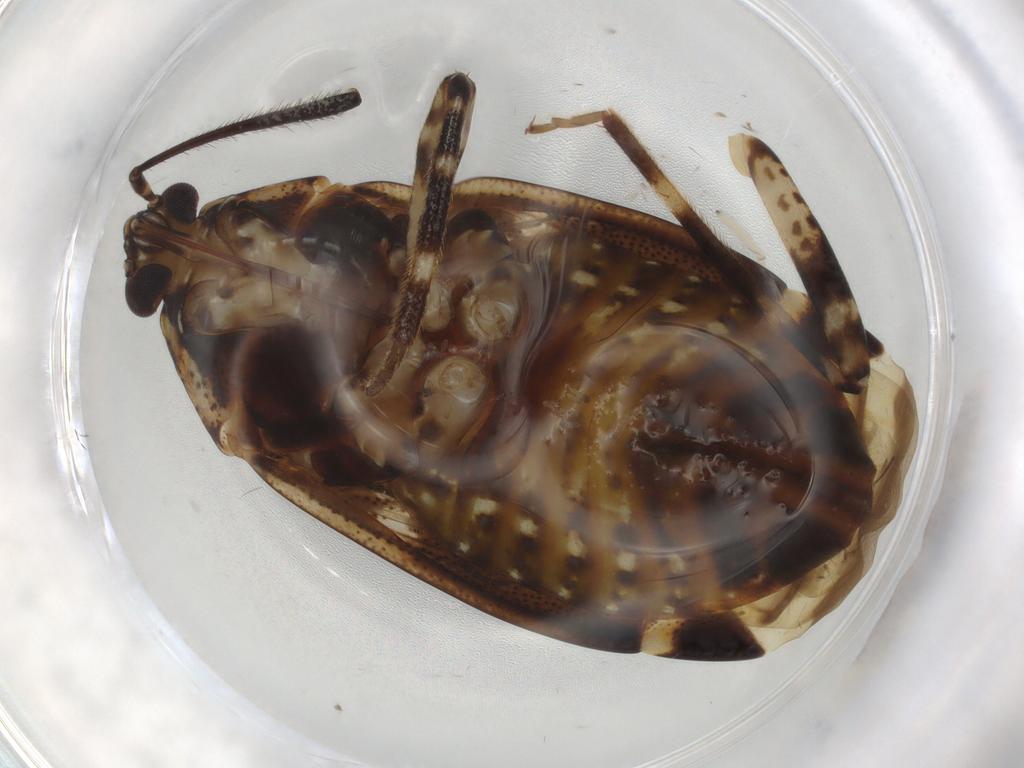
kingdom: Animalia
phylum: Arthropoda
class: Insecta
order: Hemiptera
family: Miridae
